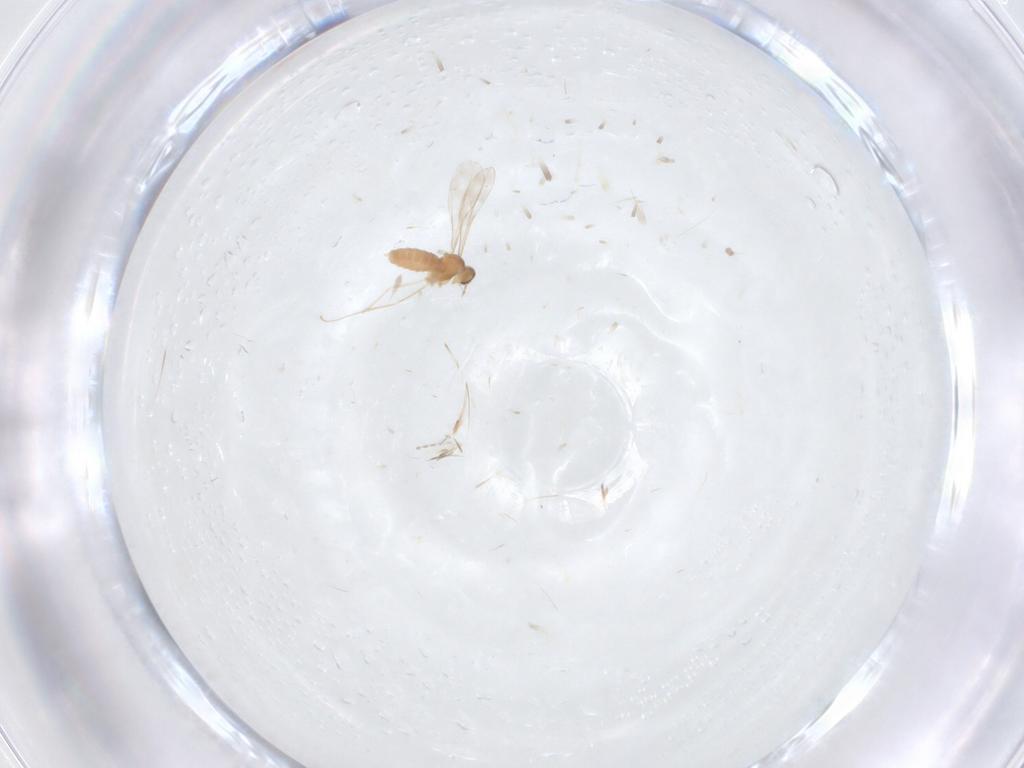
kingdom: Animalia
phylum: Arthropoda
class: Insecta
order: Diptera
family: Cecidomyiidae
